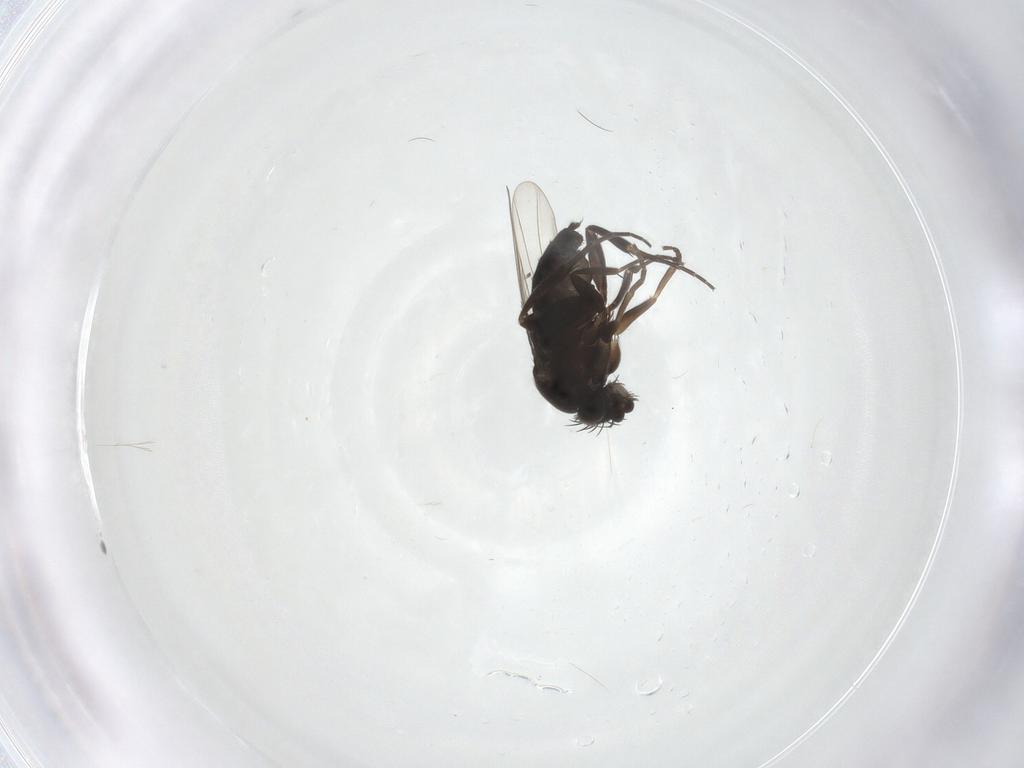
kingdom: Animalia
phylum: Arthropoda
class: Insecta
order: Diptera
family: Phoridae
